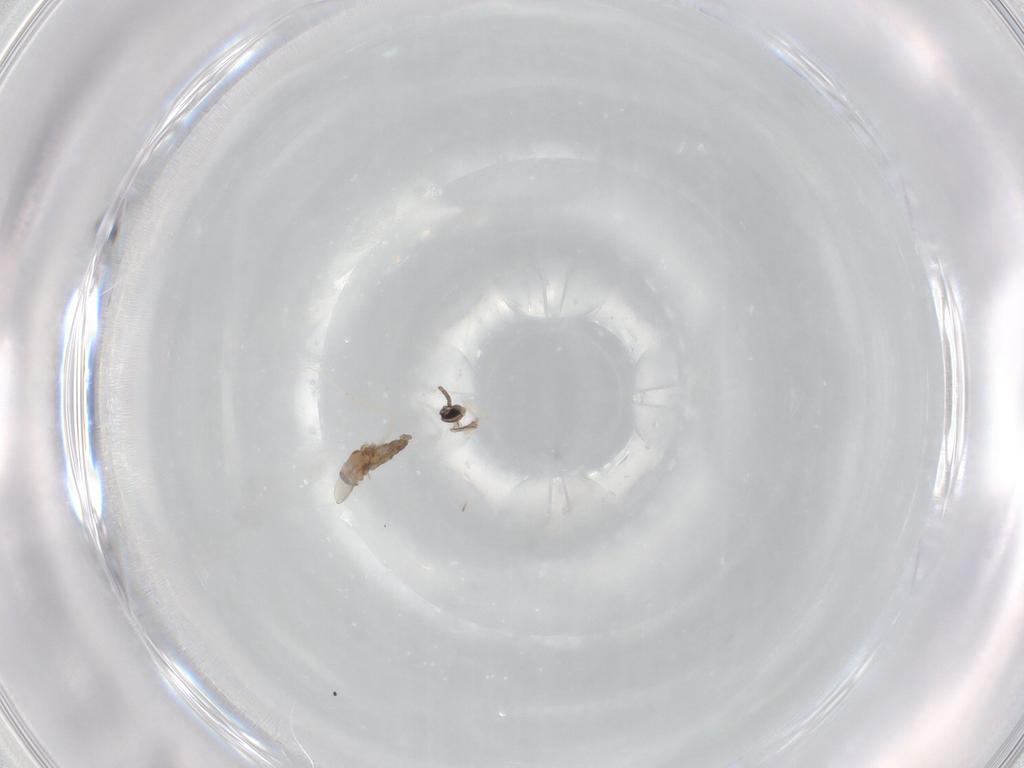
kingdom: Animalia
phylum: Arthropoda
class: Insecta
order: Diptera
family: Cecidomyiidae
